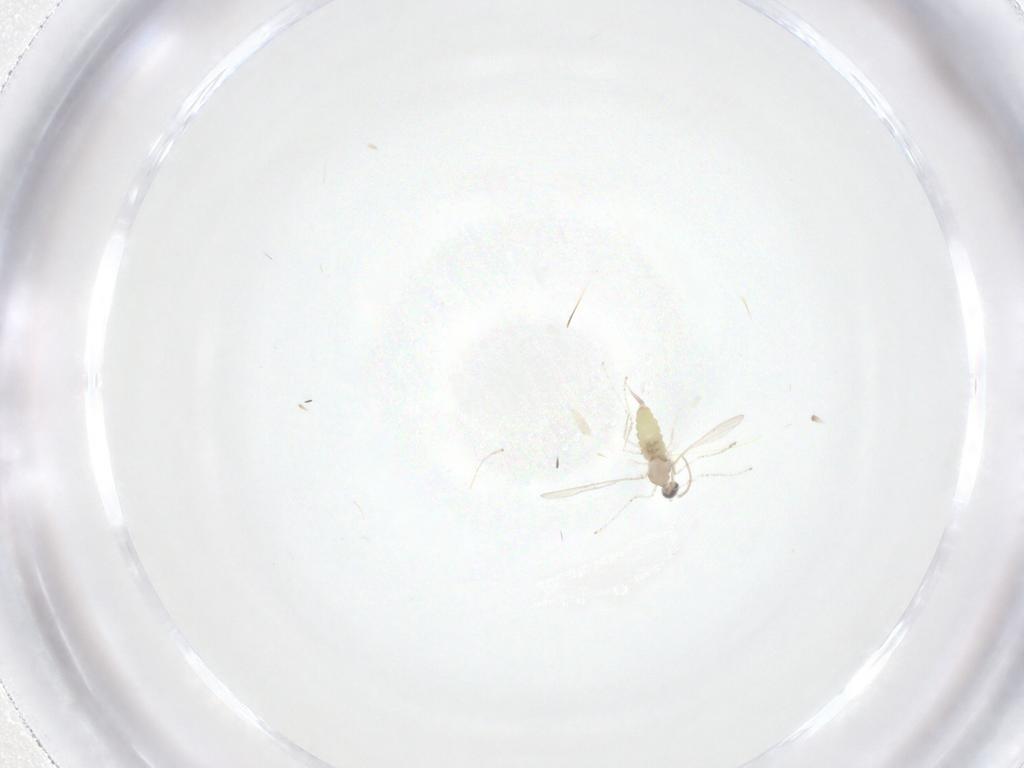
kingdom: Animalia
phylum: Arthropoda
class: Insecta
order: Diptera
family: Cecidomyiidae
